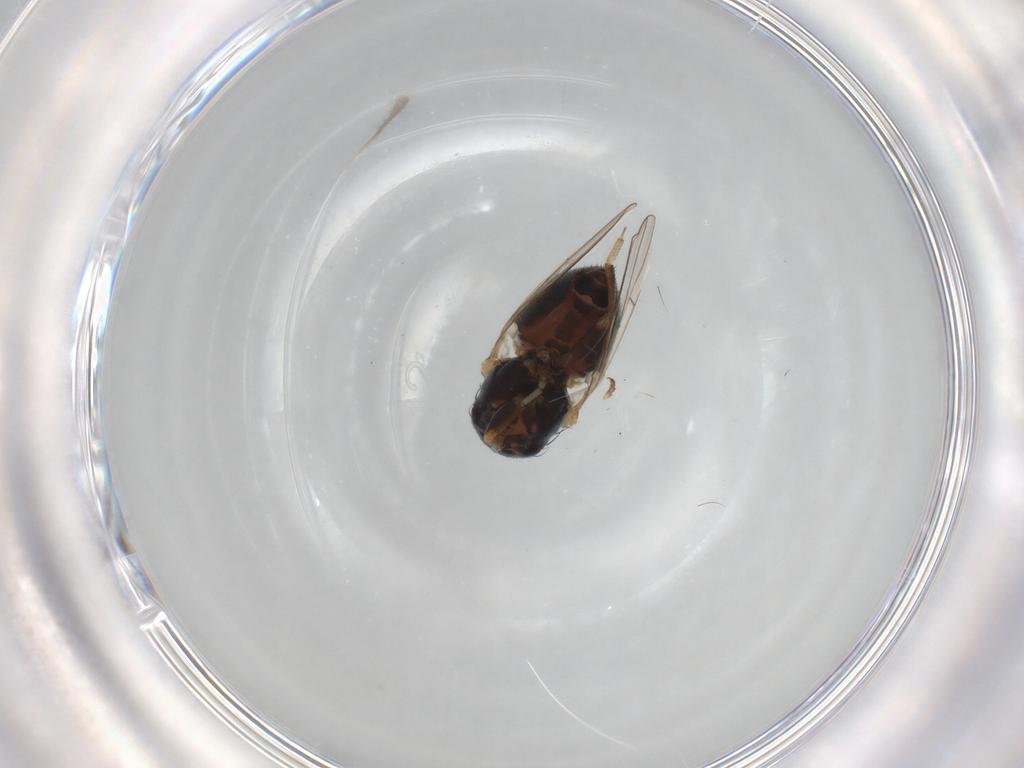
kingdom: Animalia
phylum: Arthropoda
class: Insecta
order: Diptera
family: Chamaemyiidae
